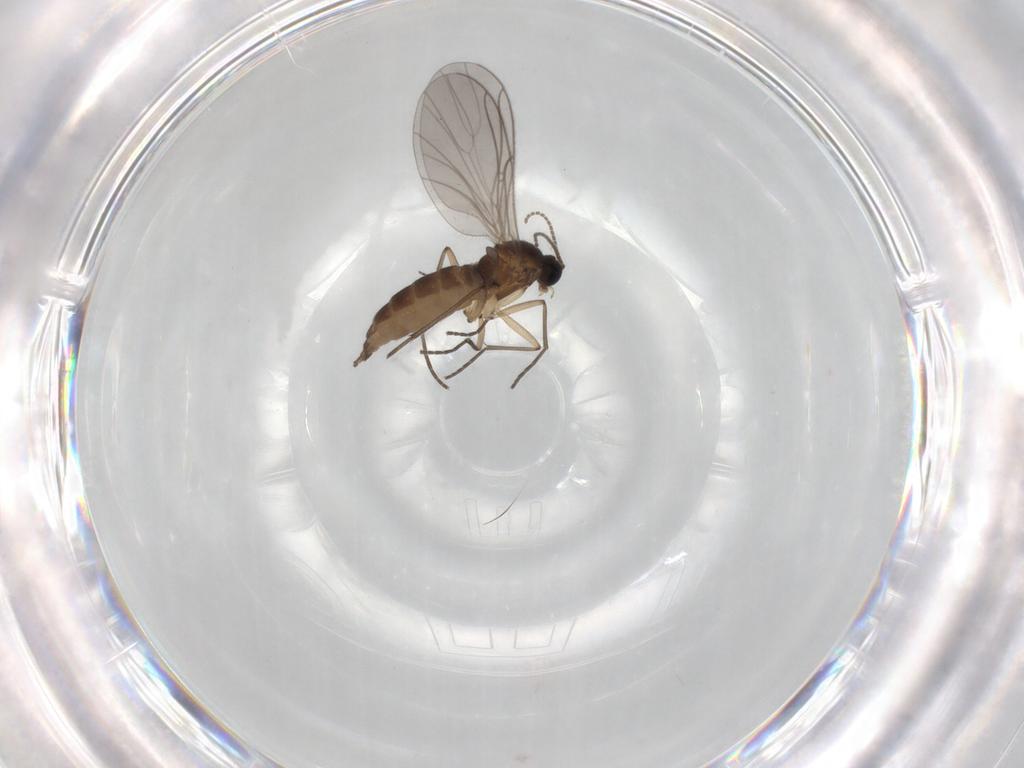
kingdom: Animalia
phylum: Arthropoda
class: Insecta
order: Diptera
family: Sciaridae
